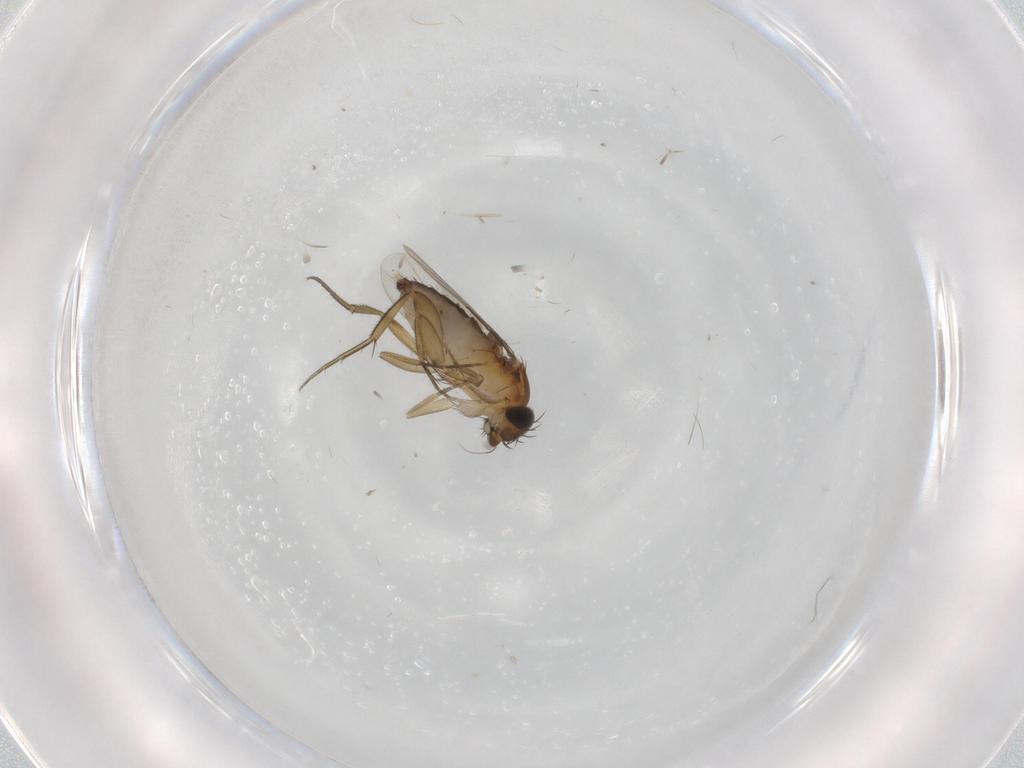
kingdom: Animalia
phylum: Arthropoda
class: Insecta
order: Diptera
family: Phoridae
